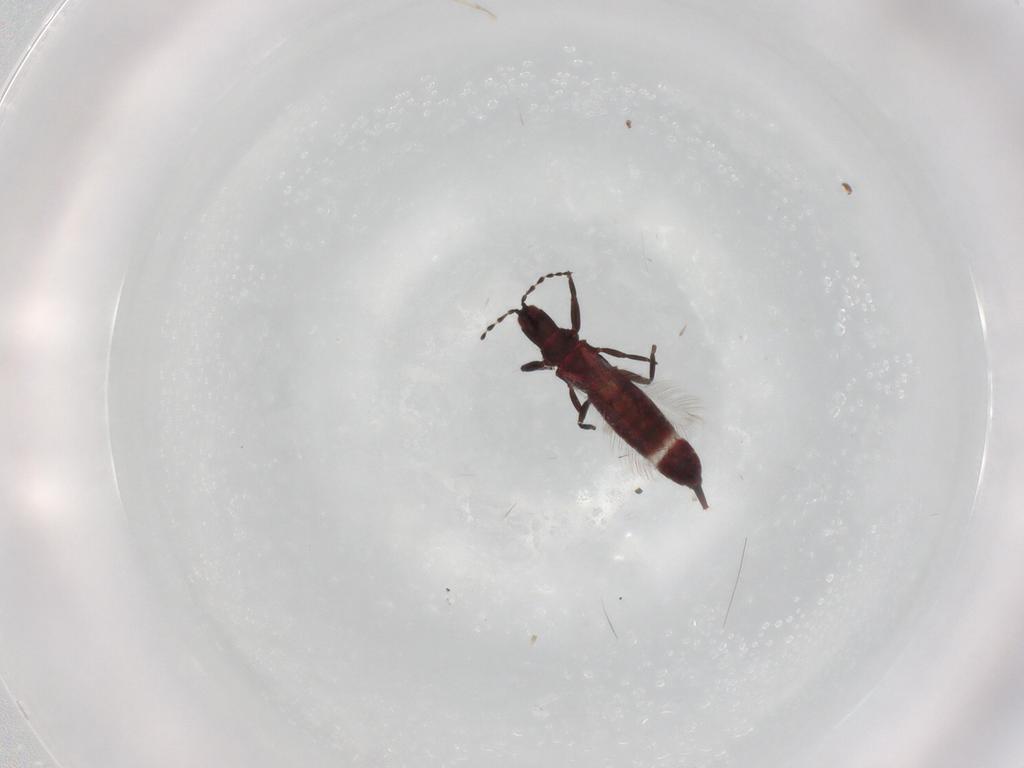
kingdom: Animalia
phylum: Arthropoda
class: Insecta
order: Thysanoptera
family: Phlaeothripidae
